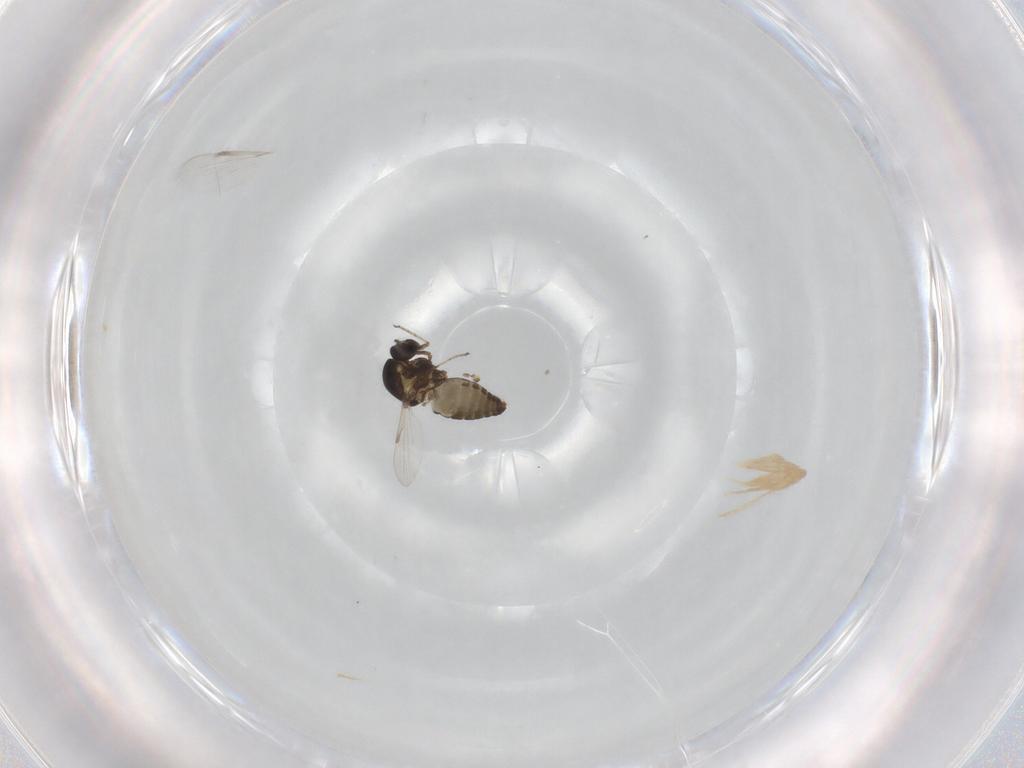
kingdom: Animalia
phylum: Arthropoda
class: Insecta
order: Diptera
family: Ceratopogonidae
